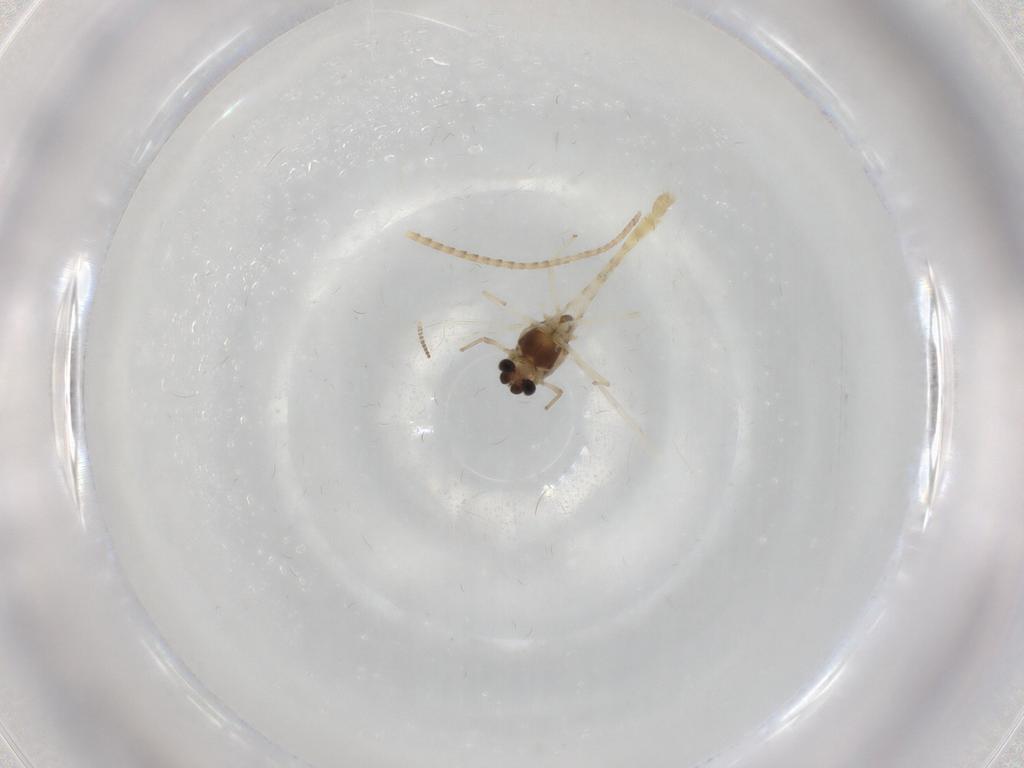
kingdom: Animalia
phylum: Arthropoda
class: Insecta
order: Diptera
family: Chironomidae
